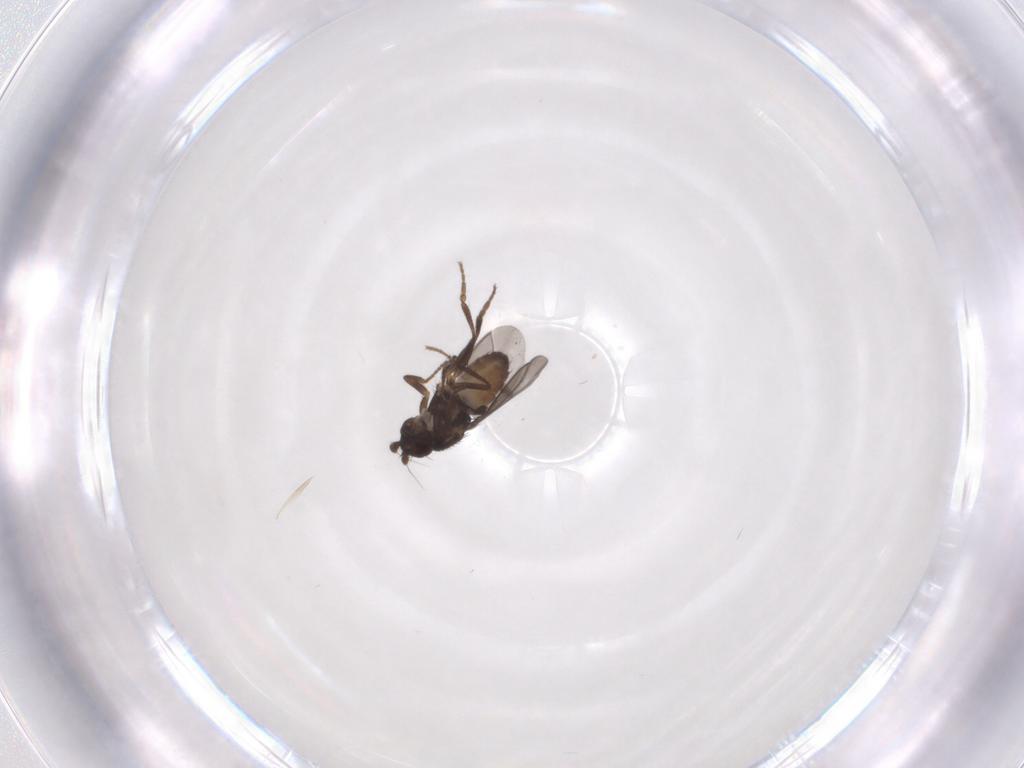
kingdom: Animalia
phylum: Arthropoda
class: Insecta
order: Diptera
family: Sphaeroceridae
